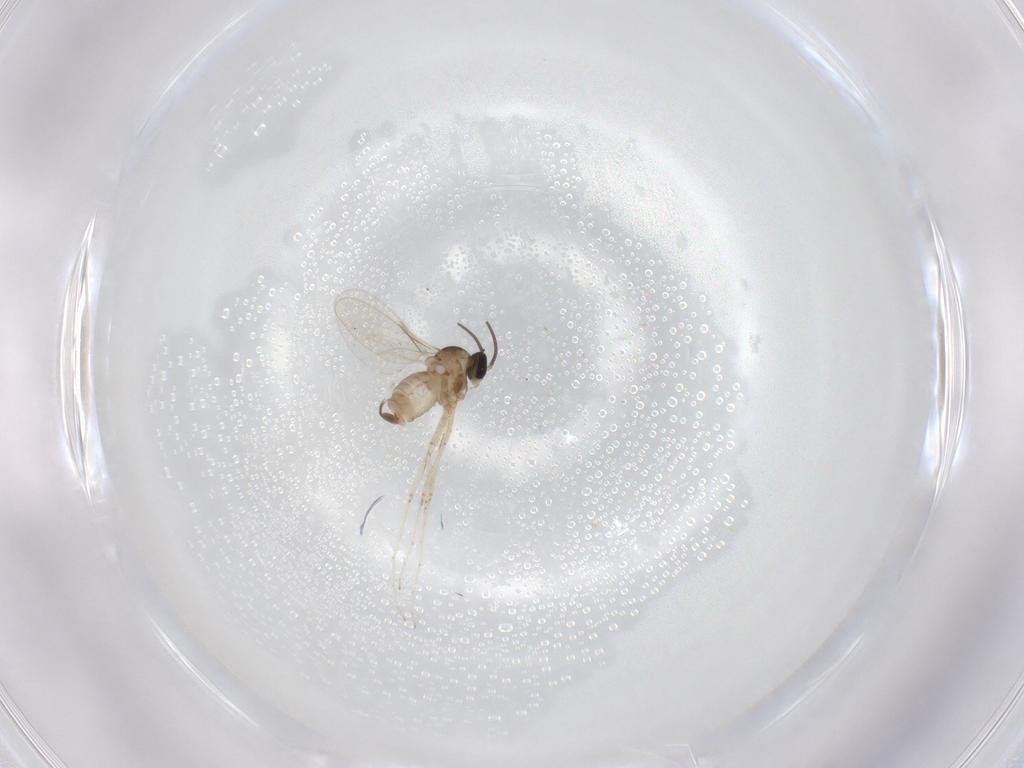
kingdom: Animalia
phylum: Arthropoda
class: Insecta
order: Diptera
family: Cecidomyiidae
